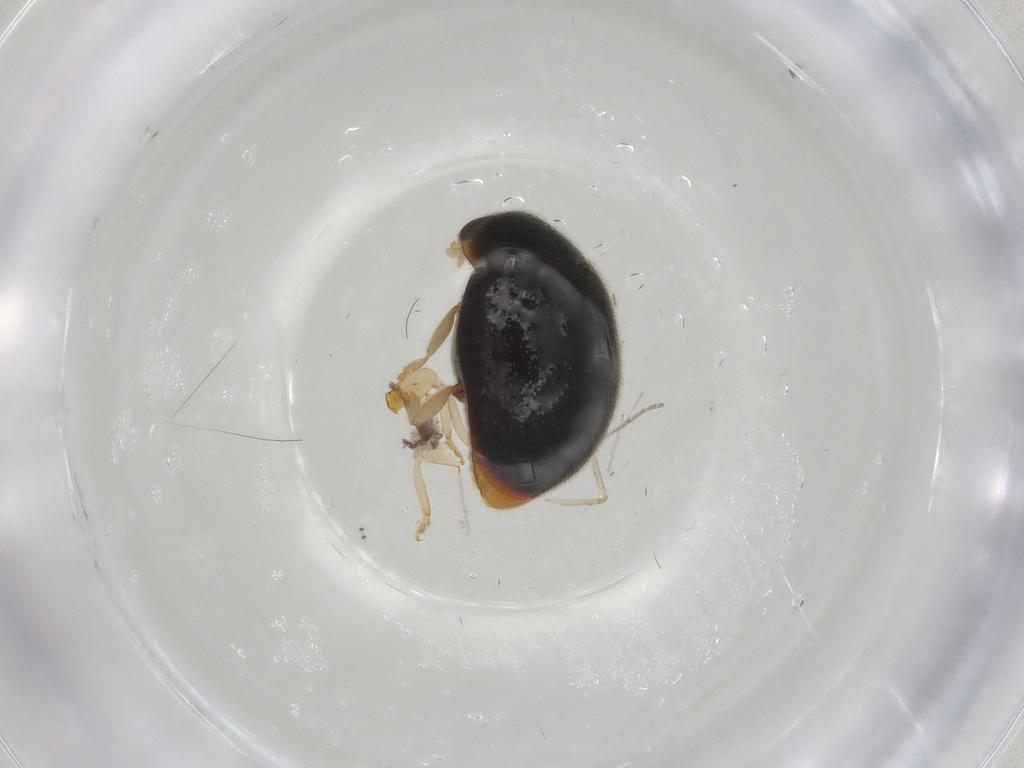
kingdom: Animalia
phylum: Arthropoda
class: Insecta
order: Coleoptera
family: Coccinellidae
